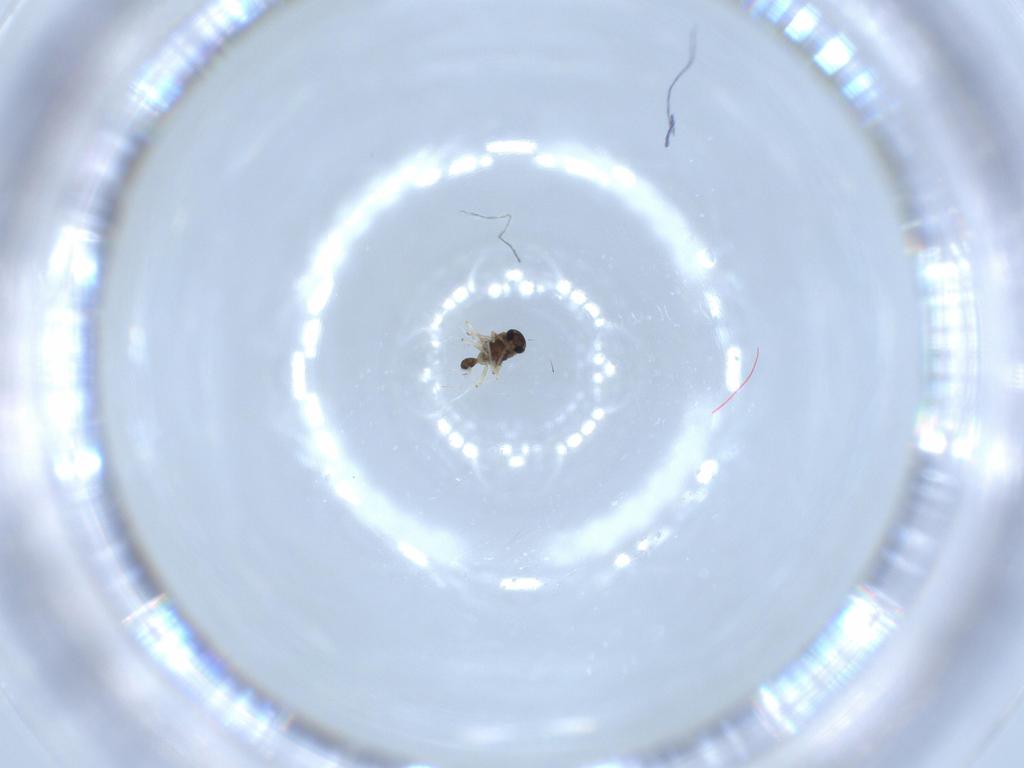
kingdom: Animalia
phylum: Arthropoda
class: Insecta
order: Diptera
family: Chironomidae
